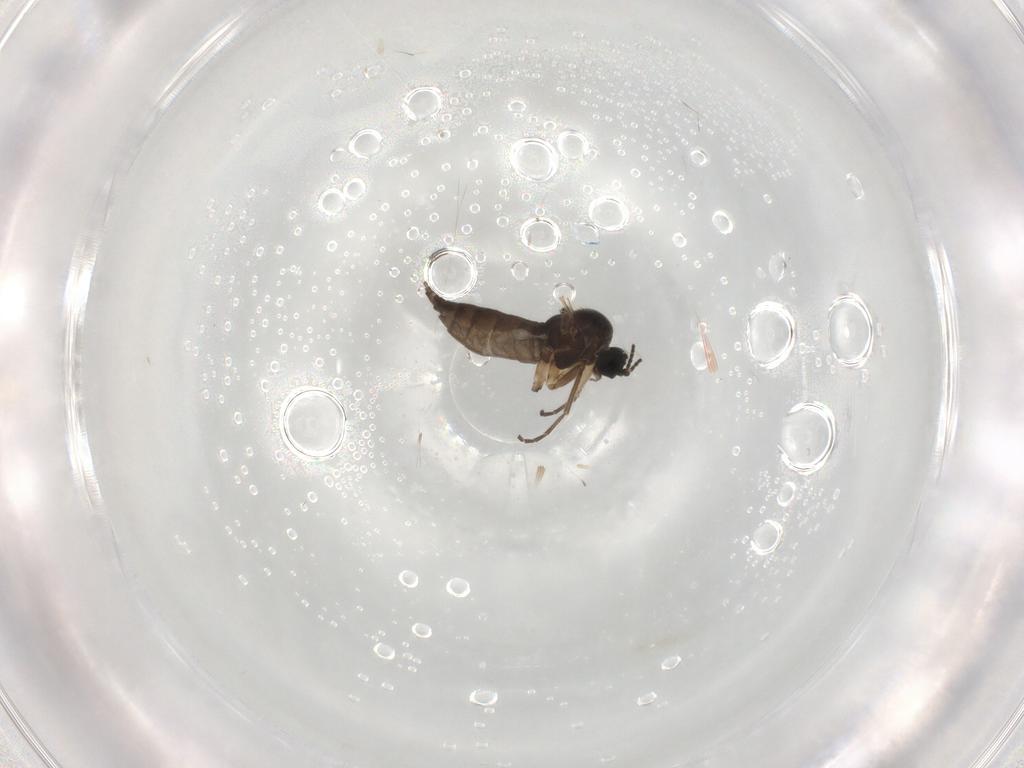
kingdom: Animalia
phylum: Arthropoda
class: Insecta
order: Diptera
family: Sciaridae
